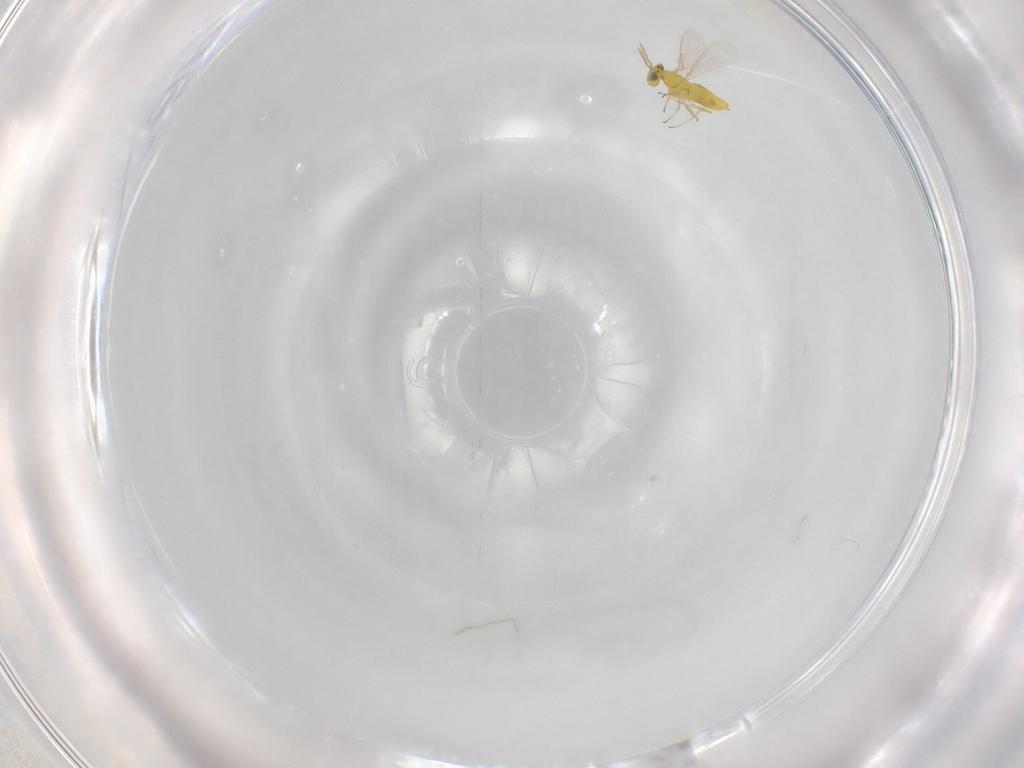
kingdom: Animalia
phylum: Arthropoda
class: Insecta
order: Hymenoptera
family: Aphelinidae
